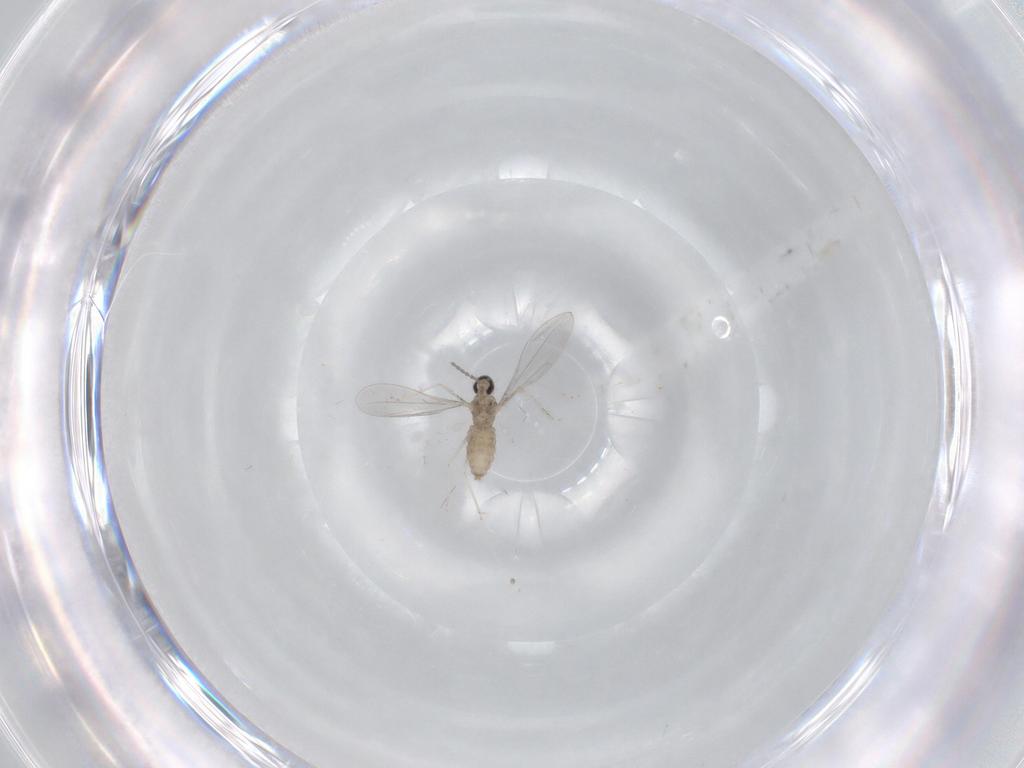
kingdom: Animalia
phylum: Arthropoda
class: Insecta
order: Diptera
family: Cecidomyiidae
